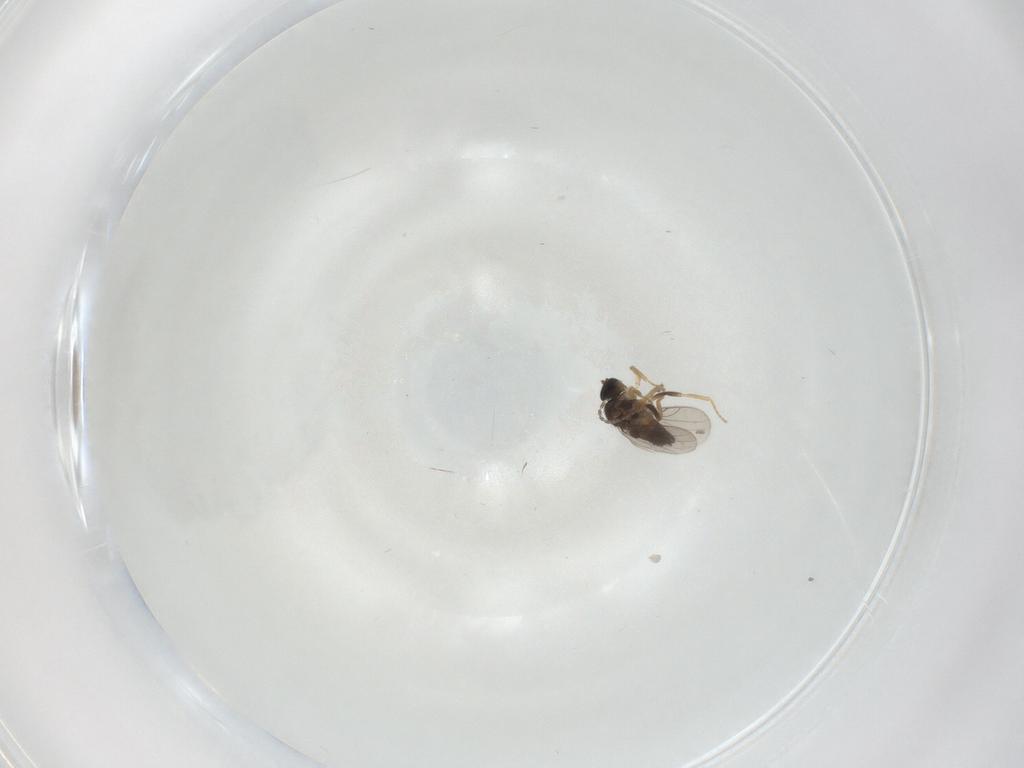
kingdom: Animalia
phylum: Arthropoda
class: Insecta
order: Diptera
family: Hybotidae
